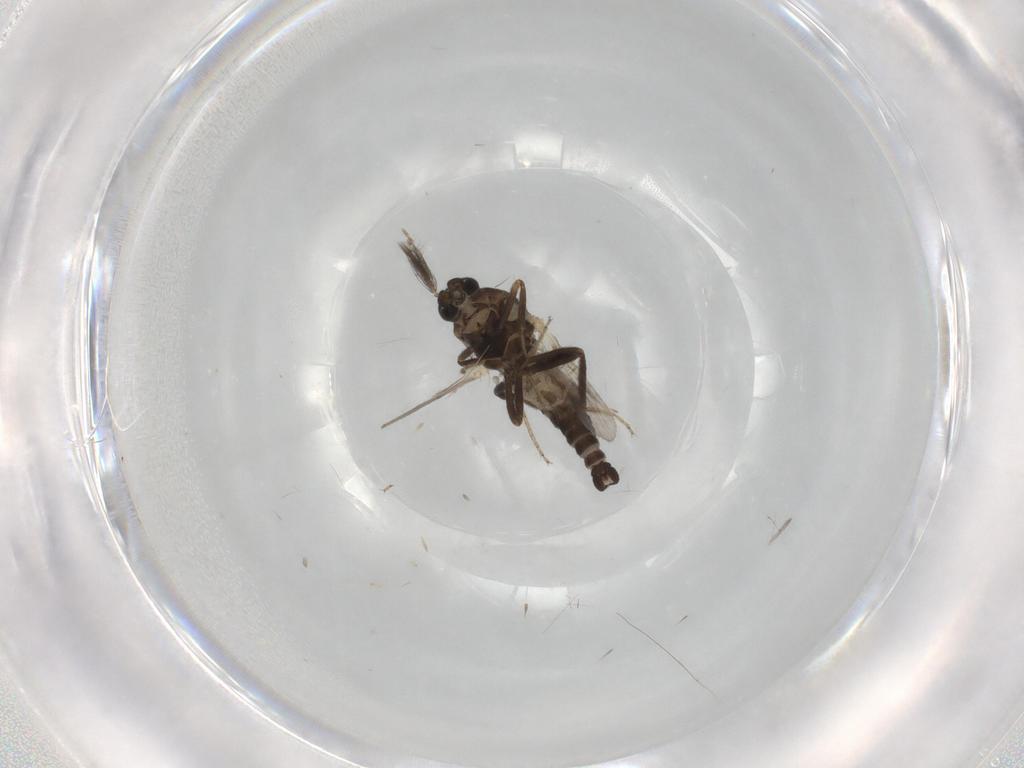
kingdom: Animalia
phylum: Arthropoda
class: Insecta
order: Diptera
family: Ceratopogonidae
